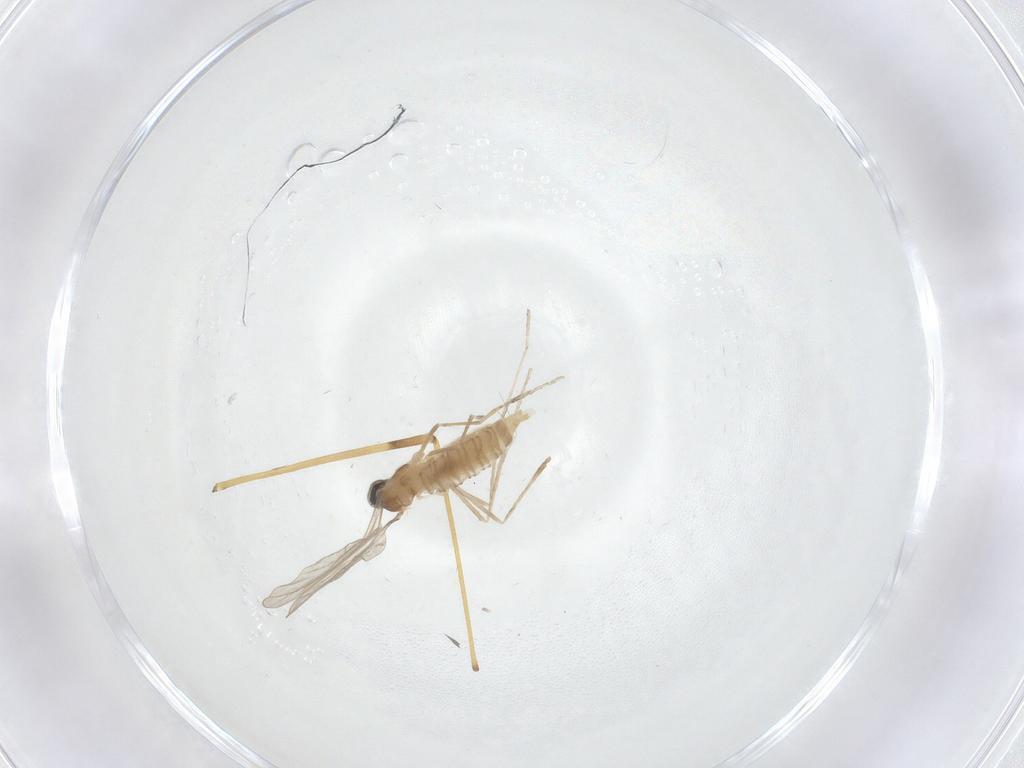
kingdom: Animalia
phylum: Arthropoda
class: Insecta
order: Diptera
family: Cecidomyiidae
